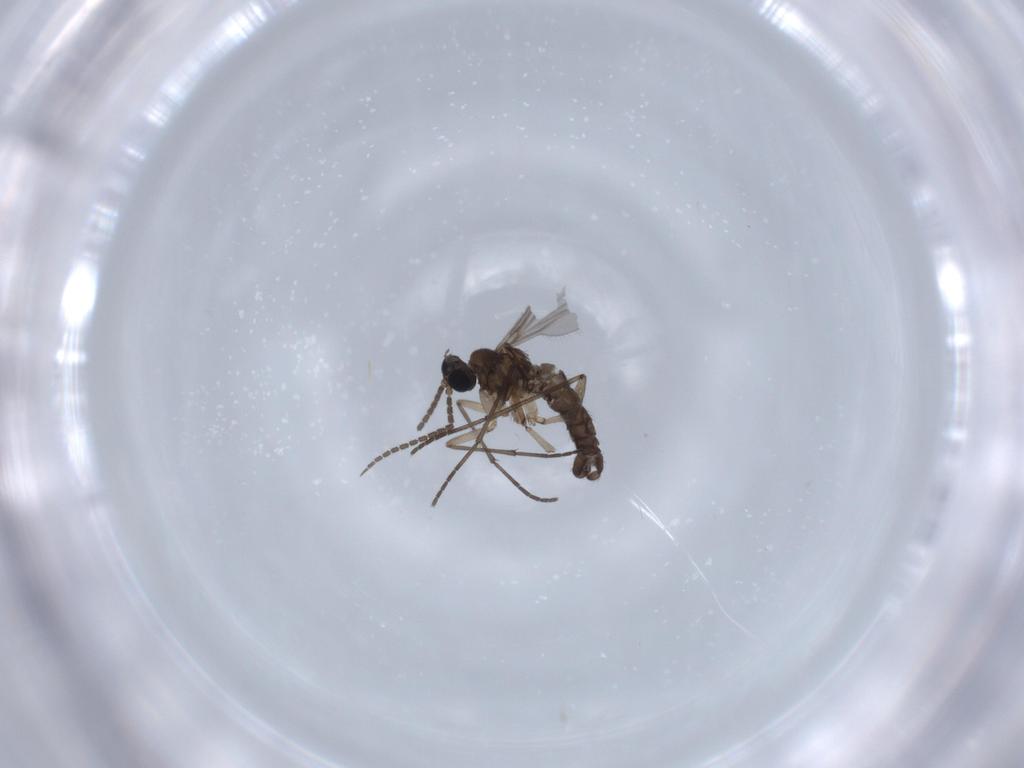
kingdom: Animalia
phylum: Arthropoda
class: Insecta
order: Diptera
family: Sciaridae
